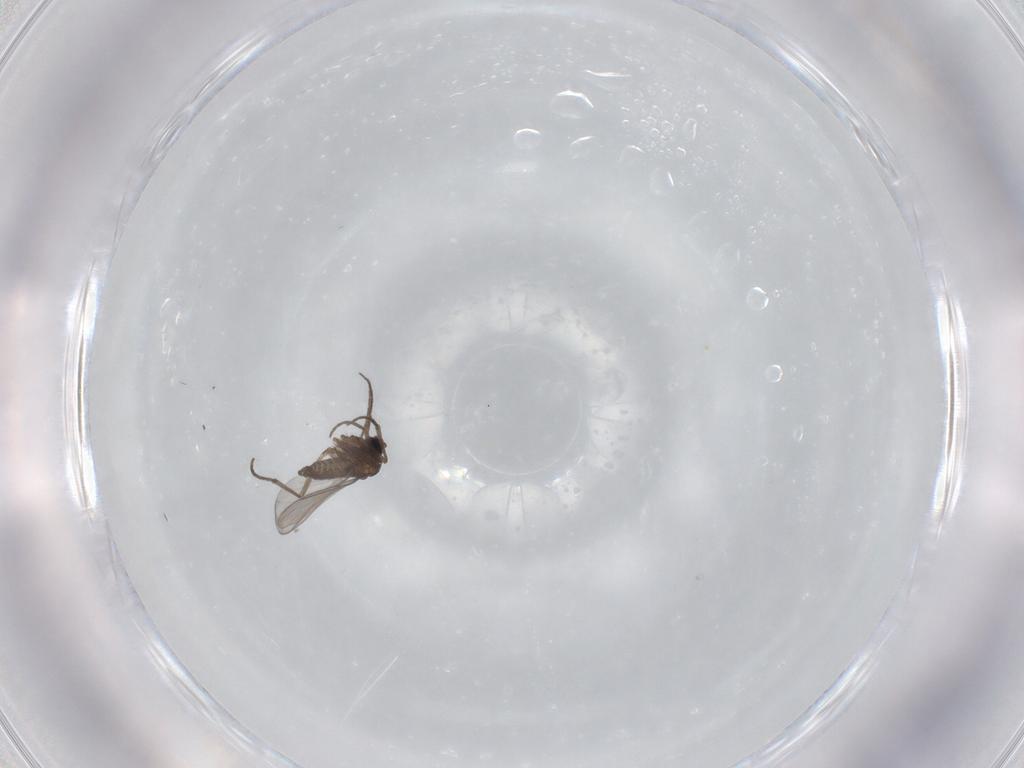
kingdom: Animalia
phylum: Arthropoda
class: Insecta
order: Diptera
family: Sciaridae
